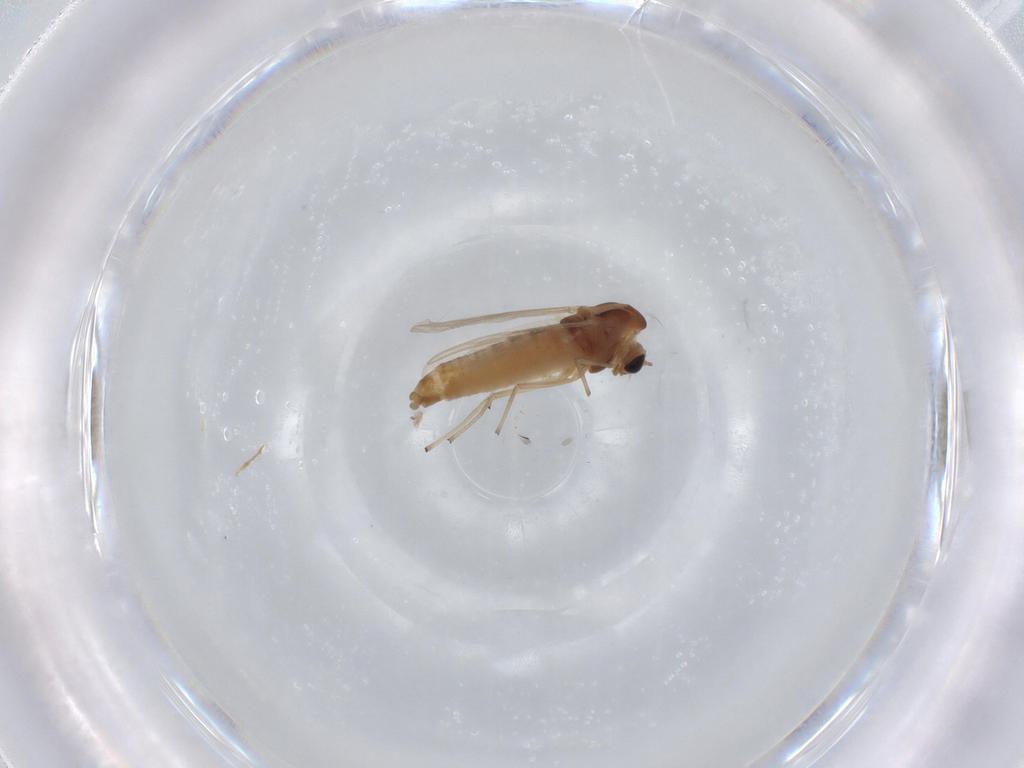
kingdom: Animalia
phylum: Arthropoda
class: Insecta
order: Diptera
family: Chironomidae
